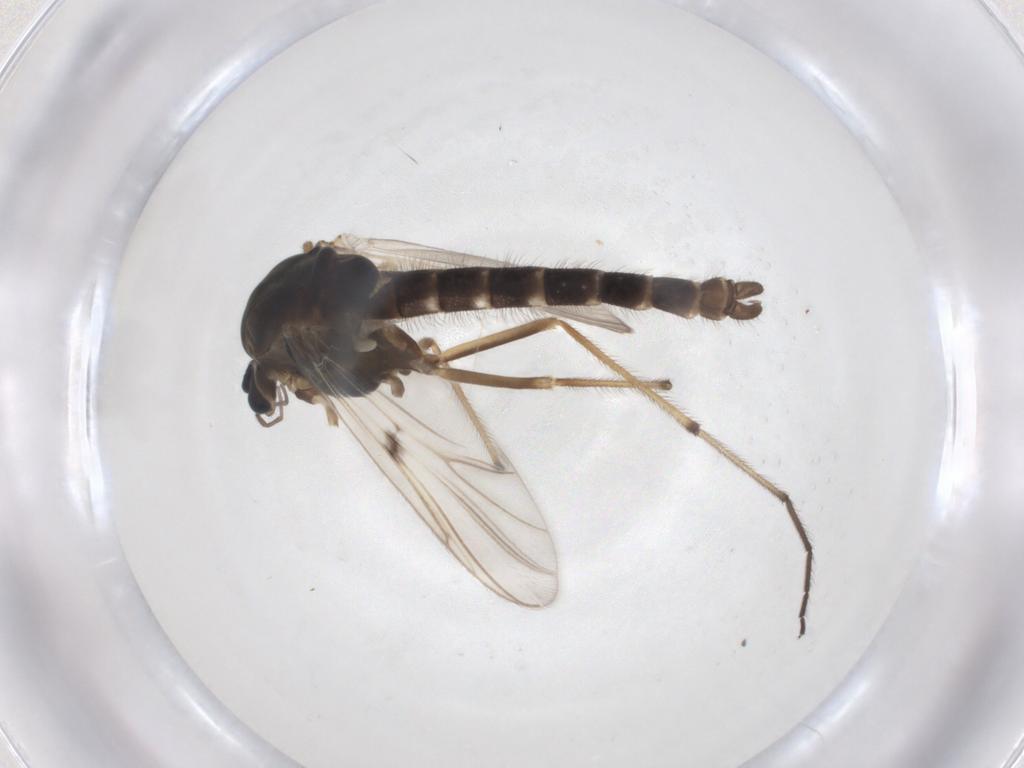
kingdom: Animalia
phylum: Arthropoda
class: Insecta
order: Diptera
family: Chironomidae
